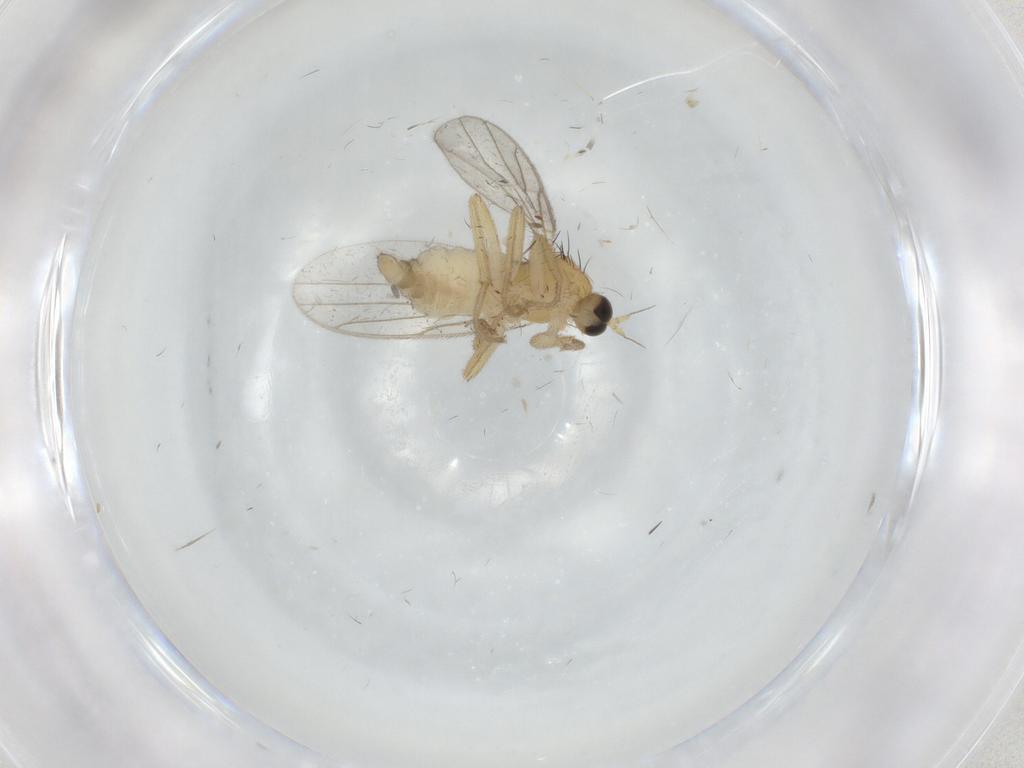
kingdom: Animalia
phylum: Arthropoda
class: Insecta
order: Diptera
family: Hybotidae
